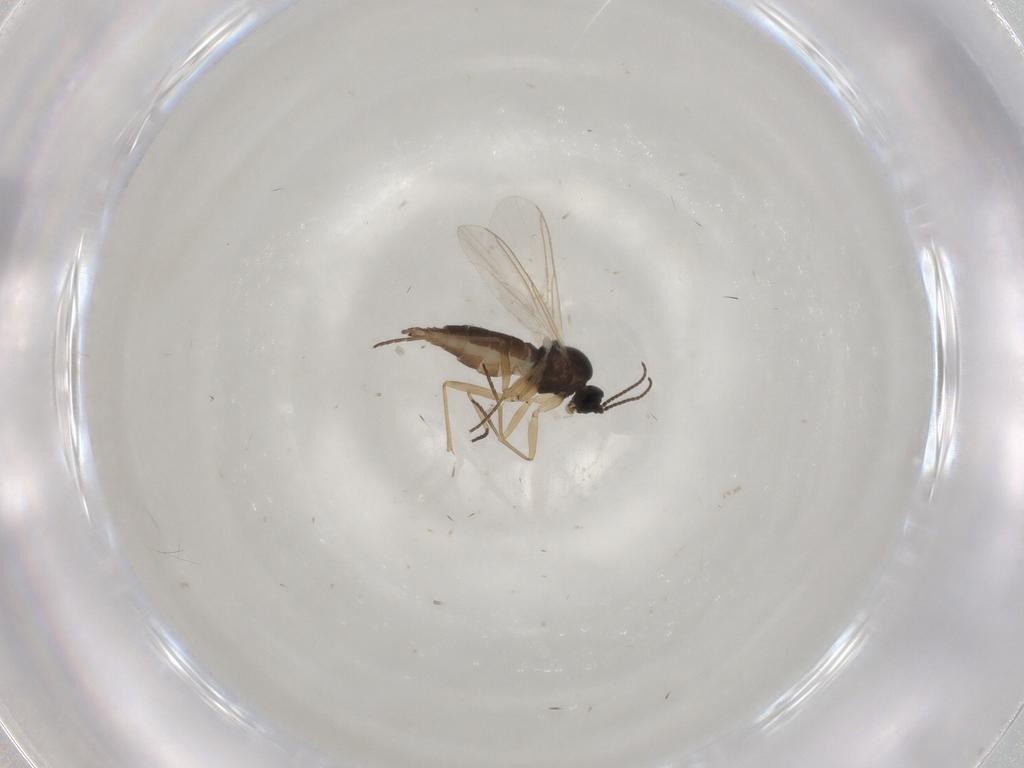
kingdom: Animalia
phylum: Arthropoda
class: Insecta
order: Diptera
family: Sciaridae
